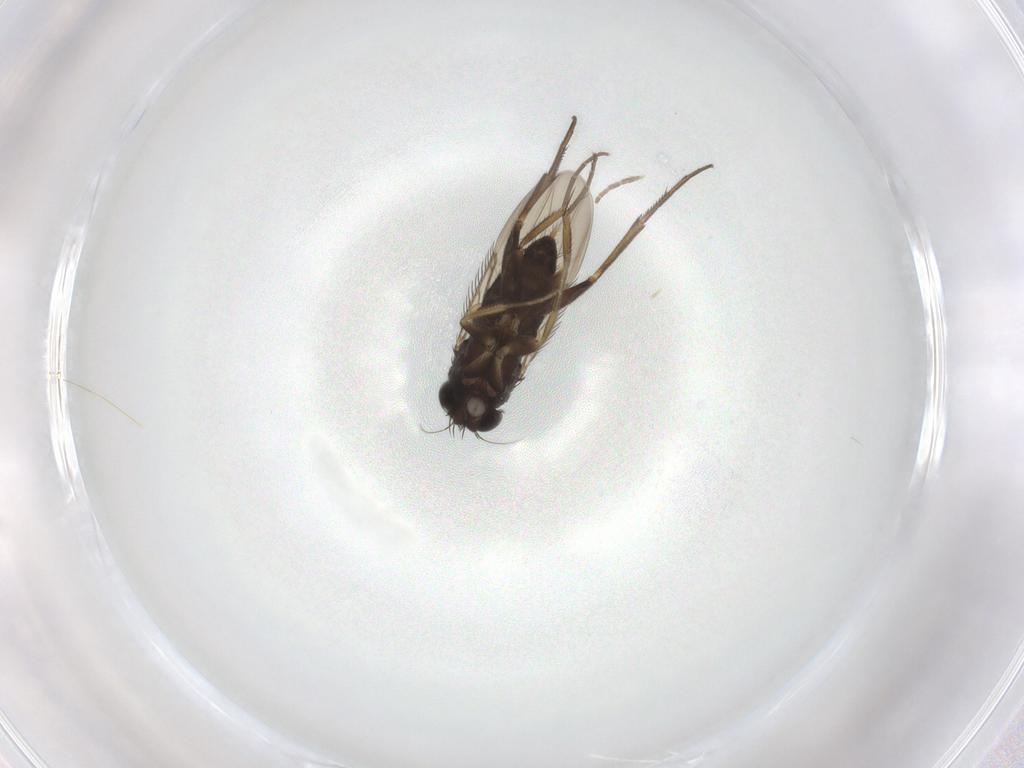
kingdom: Animalia
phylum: Arthropoda
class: Insecta
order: Diptera
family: Phoridae
